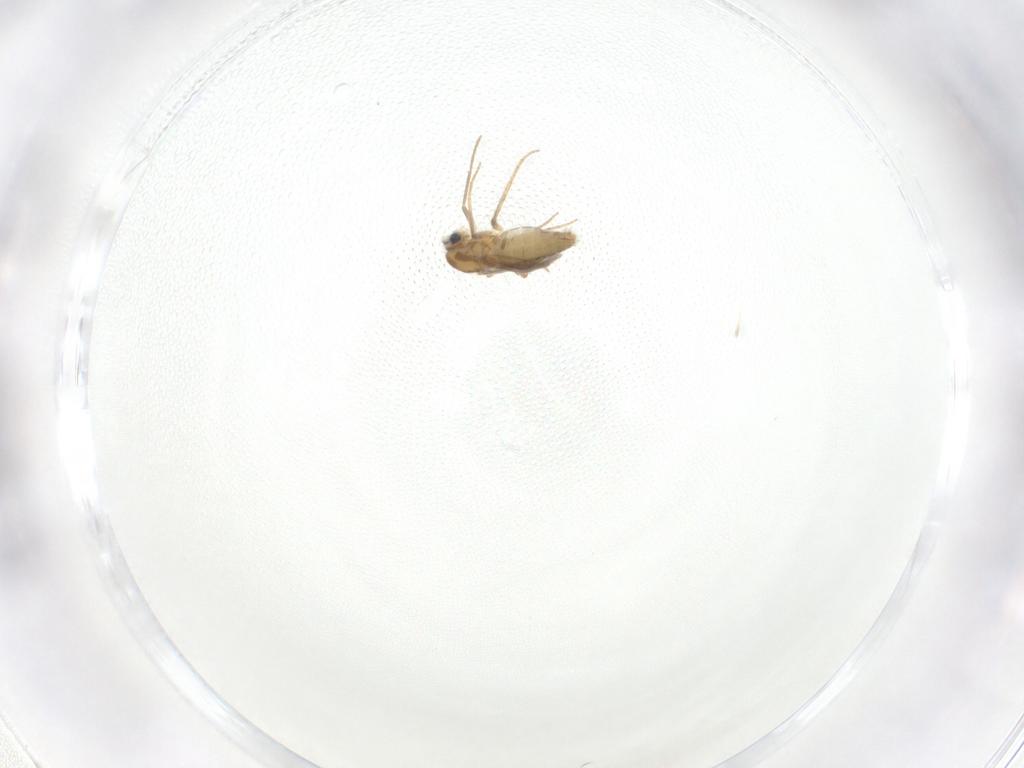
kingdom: Animalia
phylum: Arthropoda
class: Insecta
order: Diptera
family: Chironomidae
